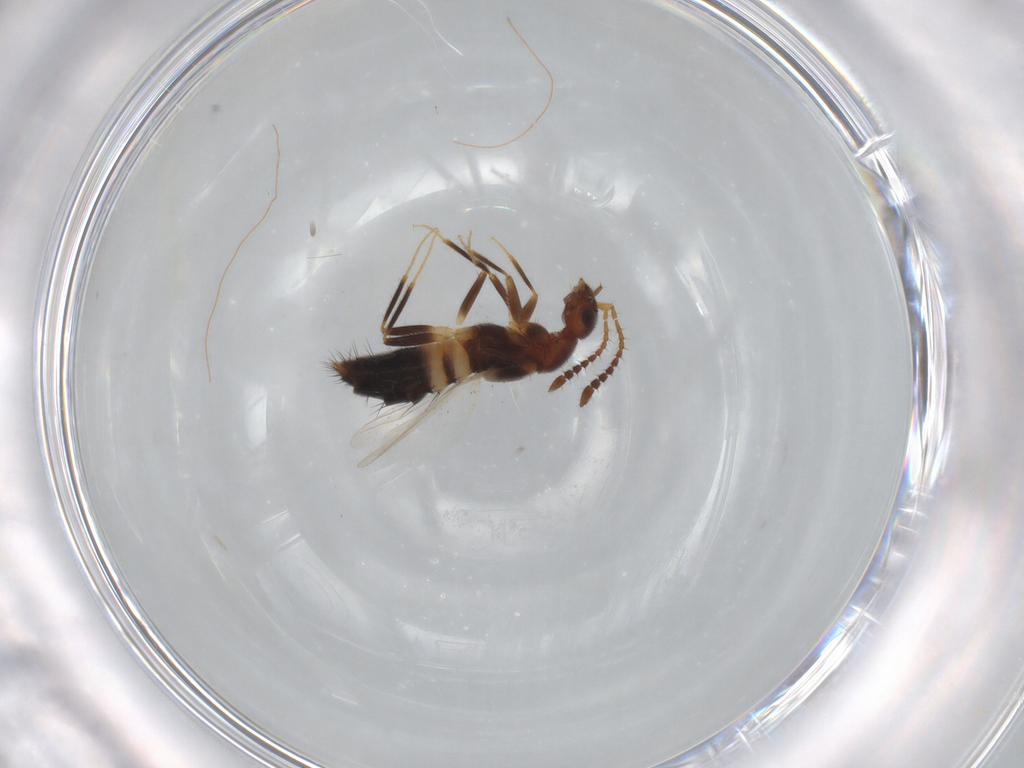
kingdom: Animalia
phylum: Arthropoda
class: Insecta
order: Coleoptera
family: Staphylinidae
